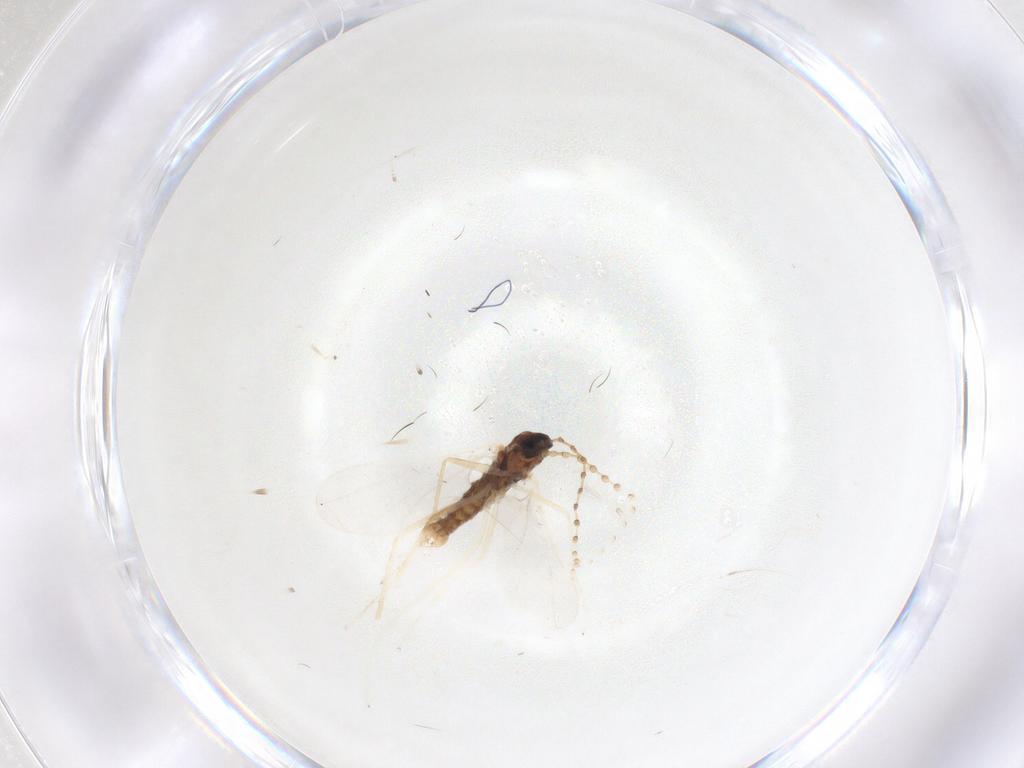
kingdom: Animalia
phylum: Arthropoda
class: Insecta
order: Diptera
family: Cecidomyiidae
